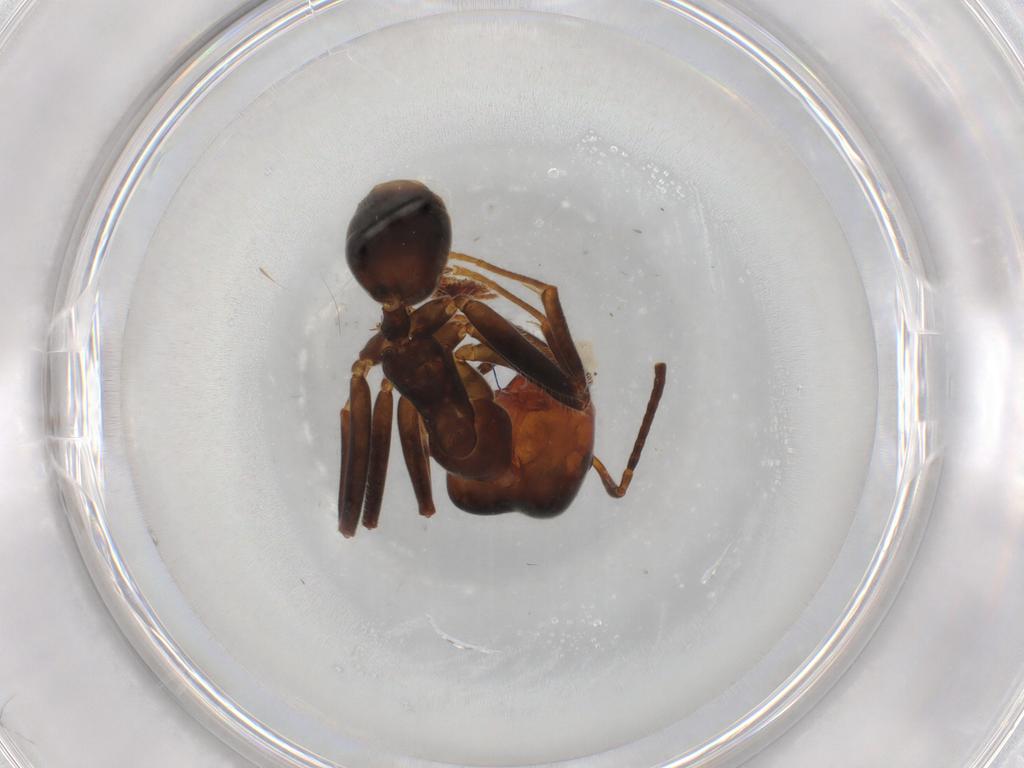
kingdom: Animalia
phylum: Arthropoda
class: Insecta
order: Hymenoptera
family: Formicidae
